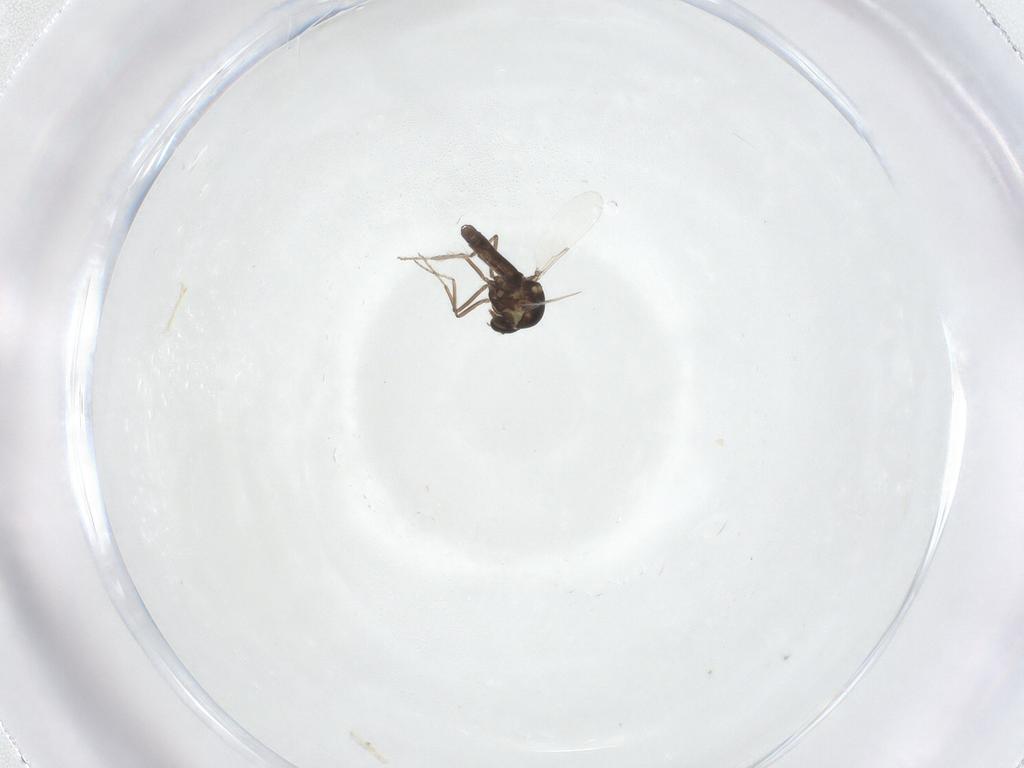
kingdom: Animalia
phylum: Arthropoda
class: Insecta
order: Diptera
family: Ceratopogonidae
